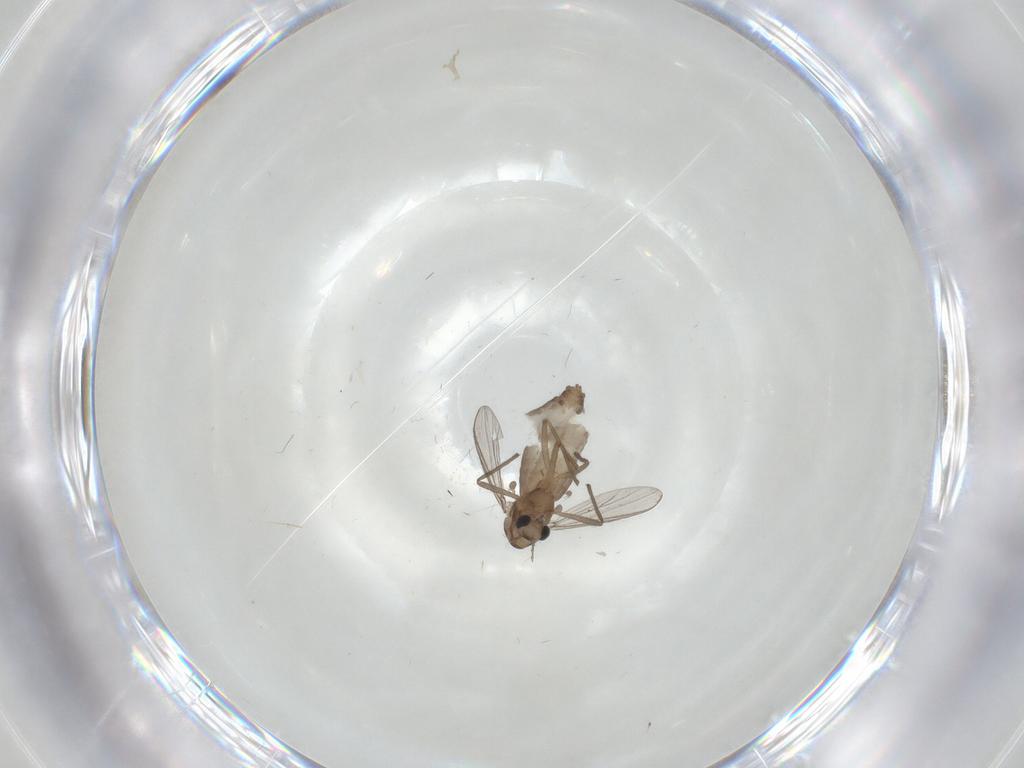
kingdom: Animalia
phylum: Arthropoda
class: Insecta
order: Diptera
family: Chironomidae
